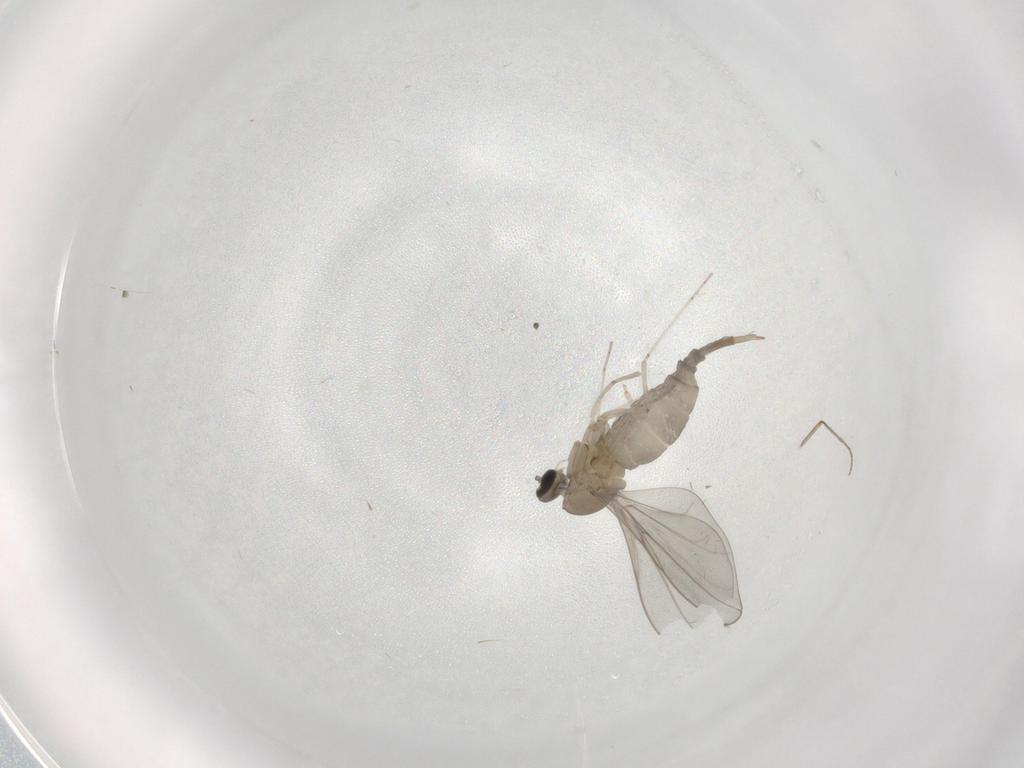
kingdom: Animalia
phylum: Arthropoda
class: Insecta
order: Diptera
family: Cecidomyiidae
